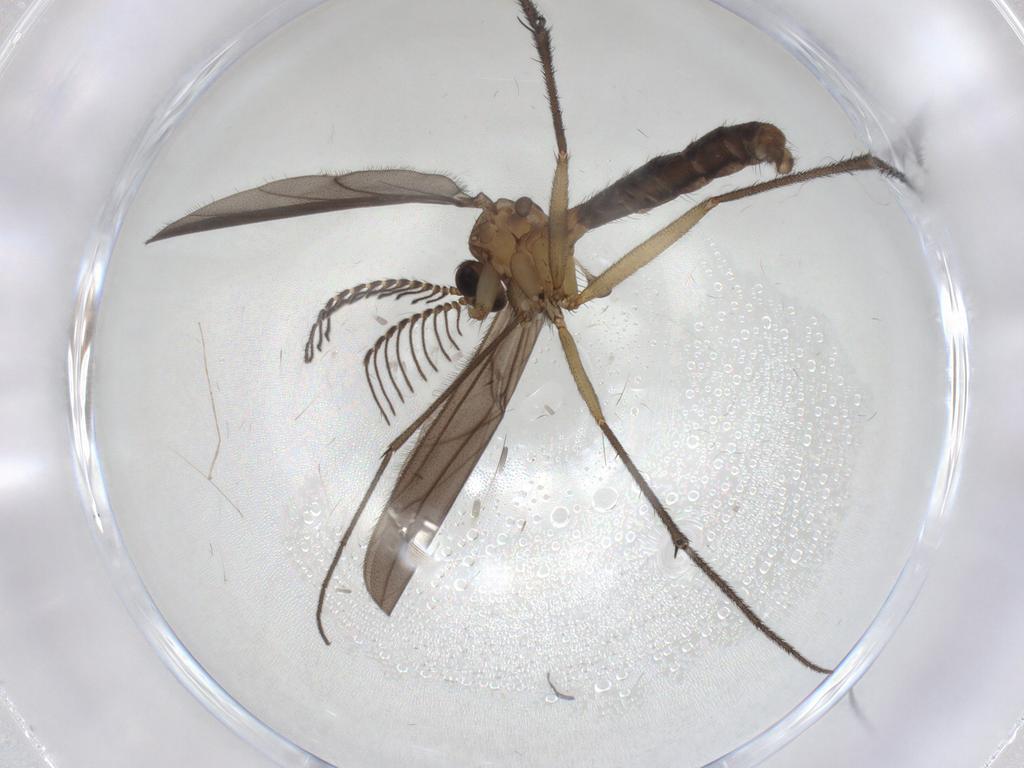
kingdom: Animalia
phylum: Arthropoda
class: Insecta
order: Diptera
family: Ditomyiidae
